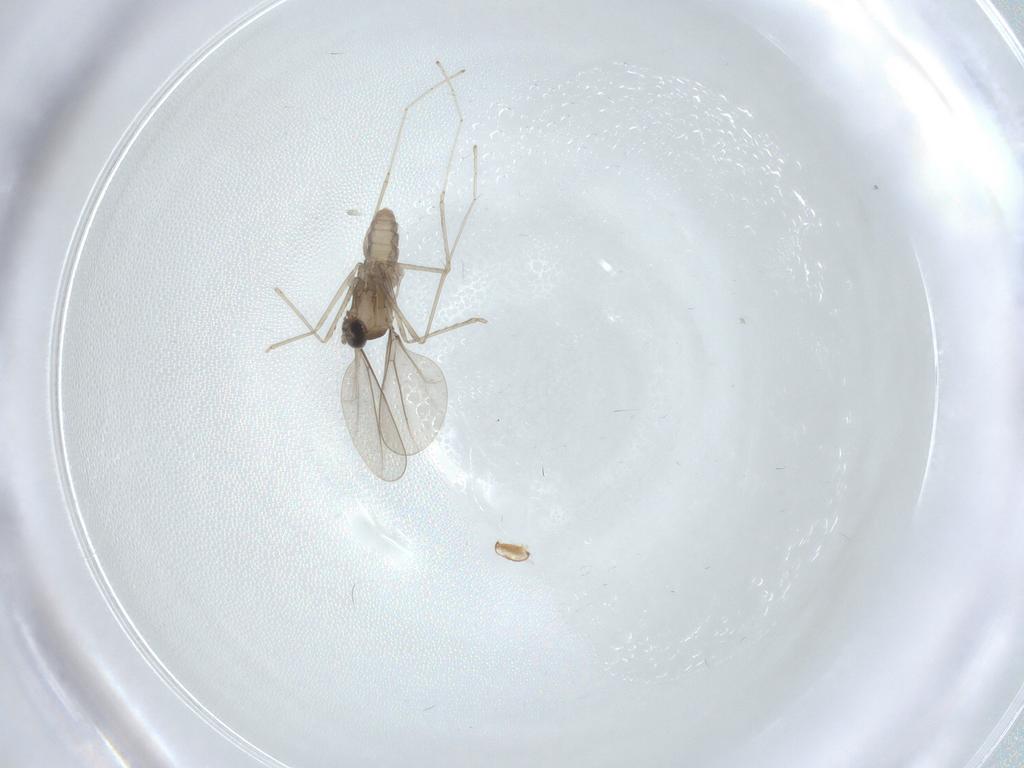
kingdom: Animalia
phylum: Arthropoda
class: Insecta
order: Diptera
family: Cecidomyiidae
